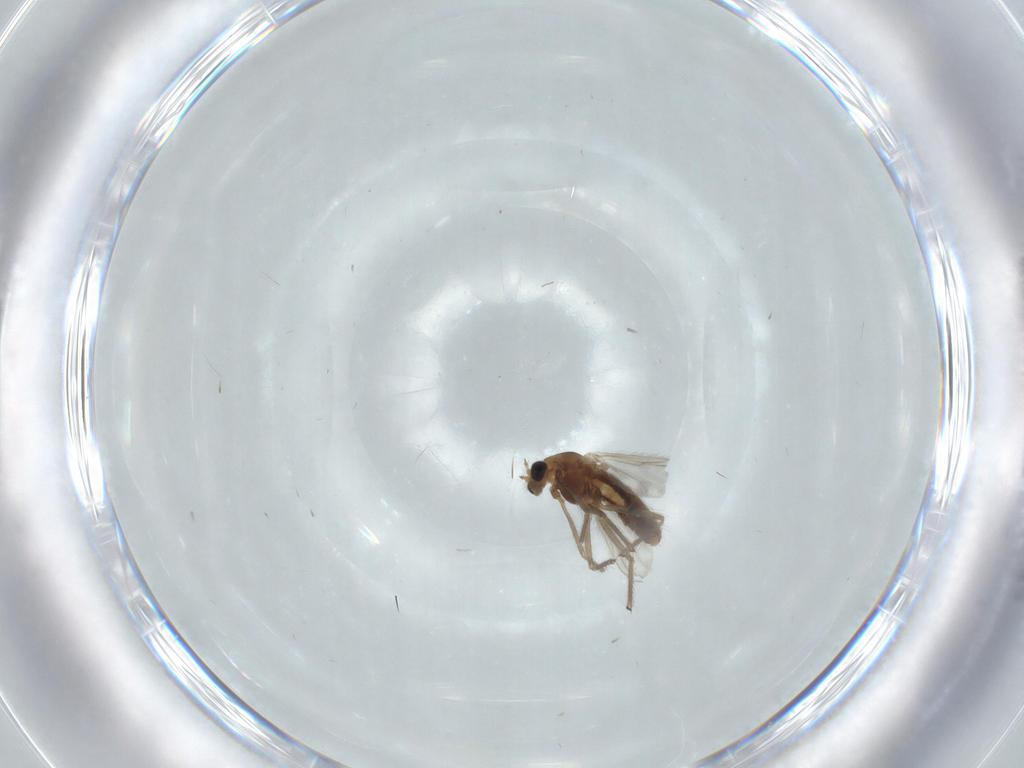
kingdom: Animalia
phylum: Arthropoda
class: Insecta
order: Diptera
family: Chironomidae
